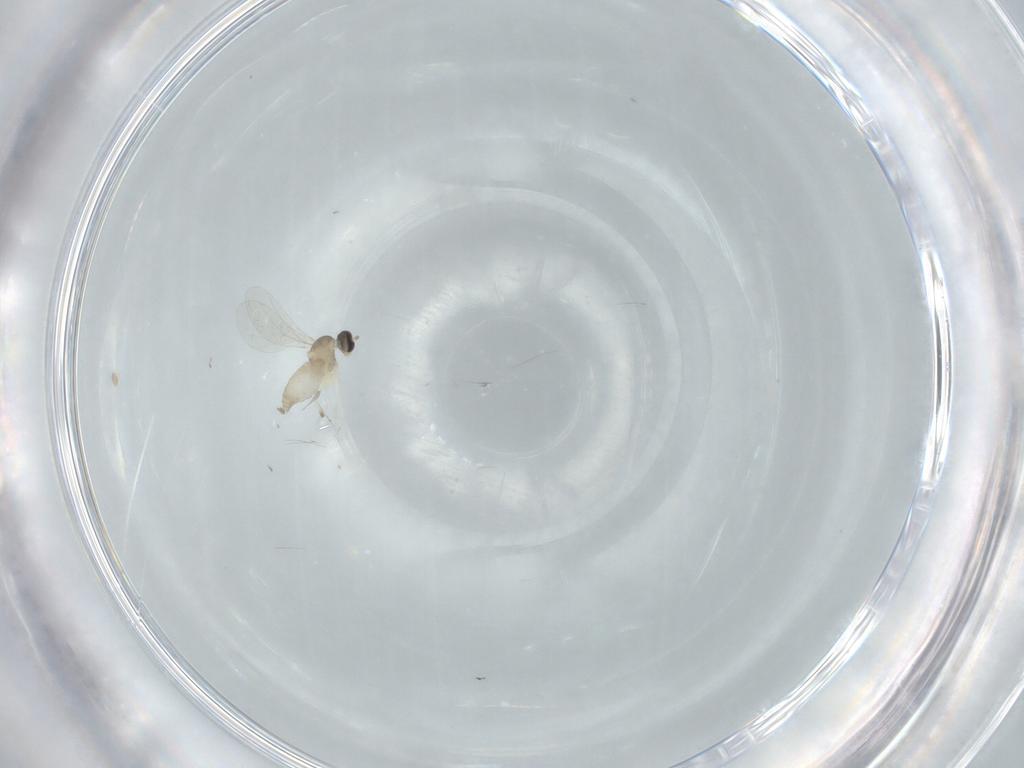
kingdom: Animalia
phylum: Arthropoda
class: Insecta
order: Diptera
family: Cecidomyiidae
